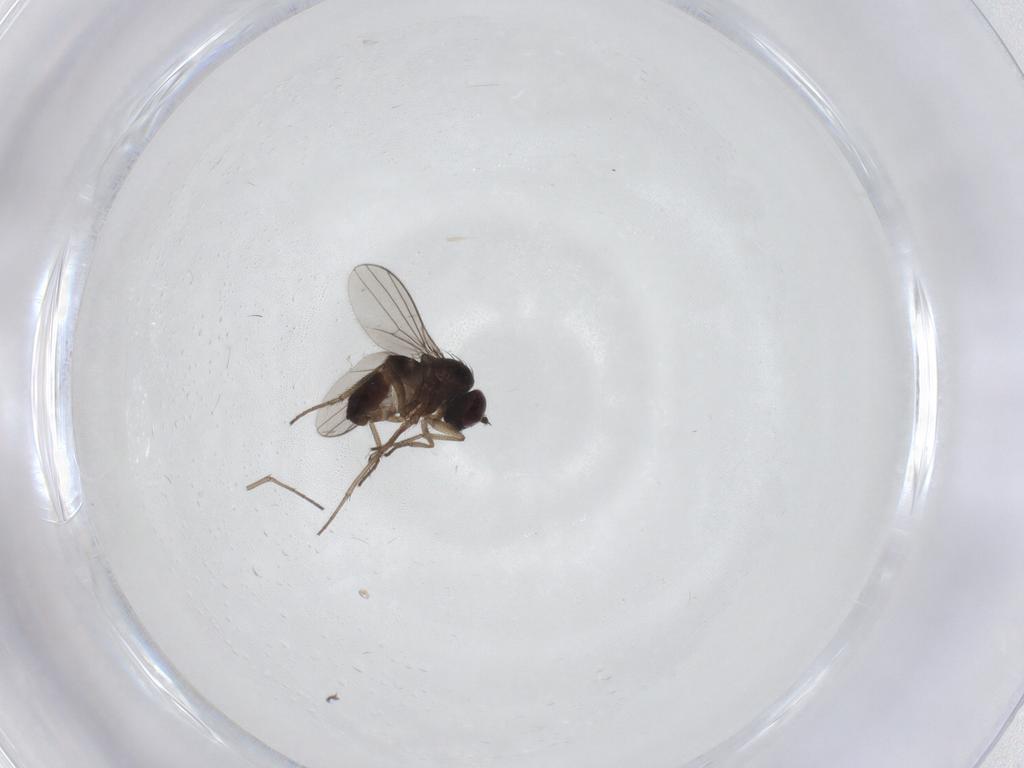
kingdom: Animalia
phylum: Arthropoda
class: Insecta
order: Diptera
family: Dolichopodidae
